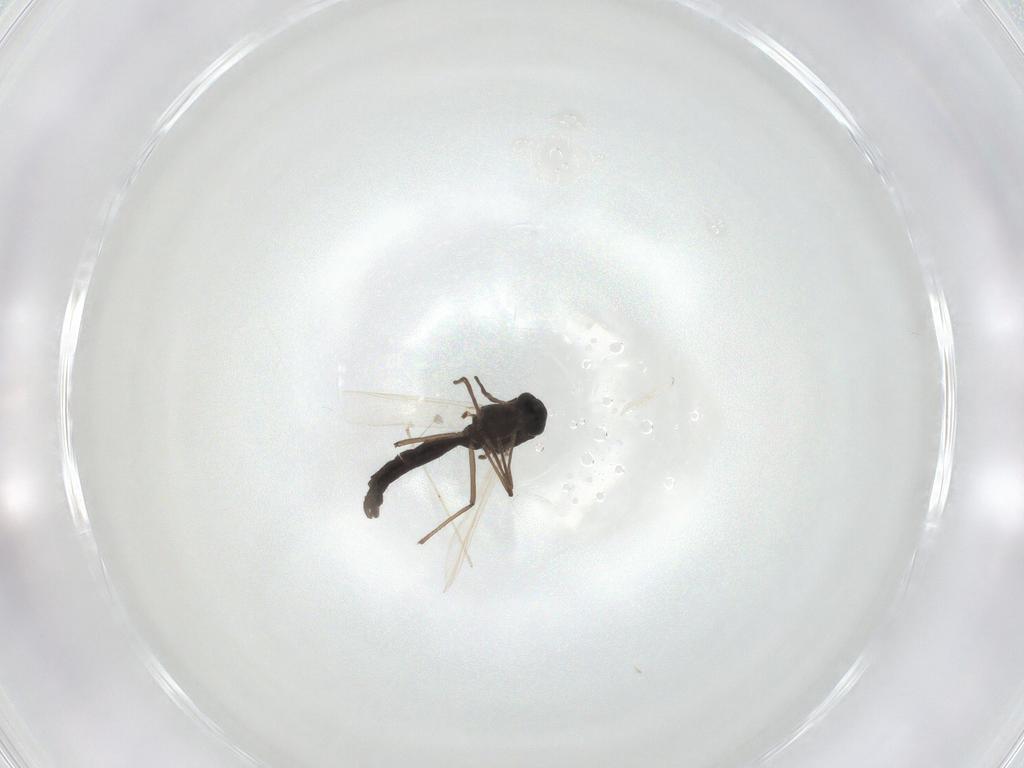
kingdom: Animalia
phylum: Arthropoda
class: Insecta
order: Diptera
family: Chironomidae
